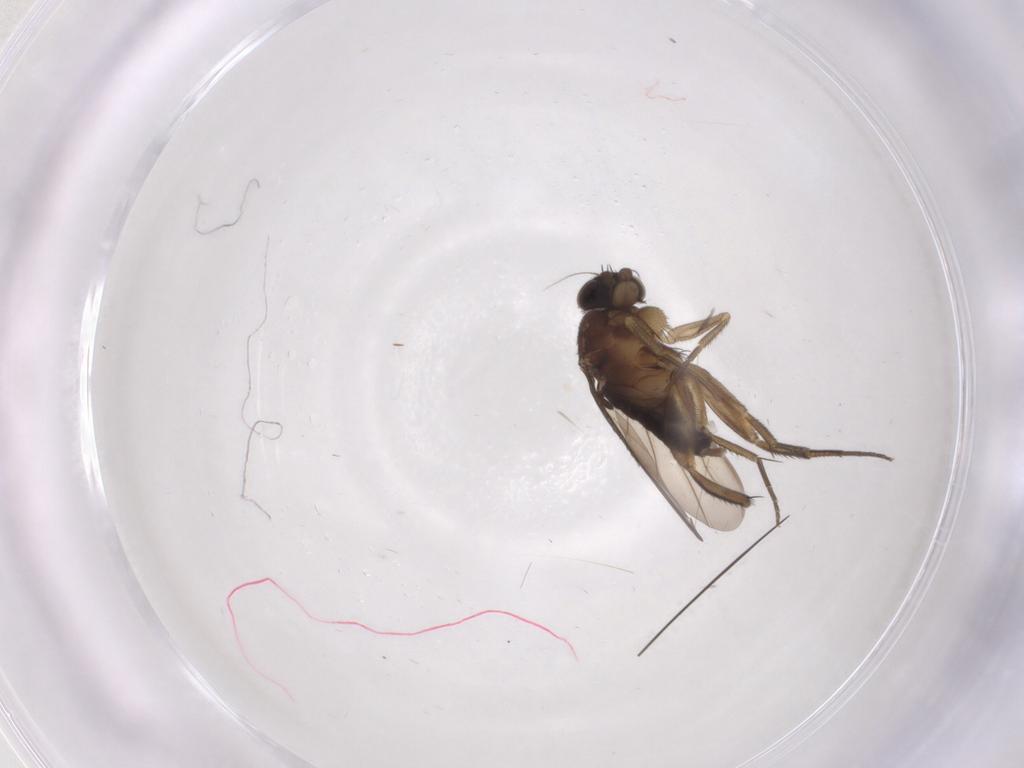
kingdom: Animalia
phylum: Arthropoda
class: Insecta
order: Diptera
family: Phoridae
